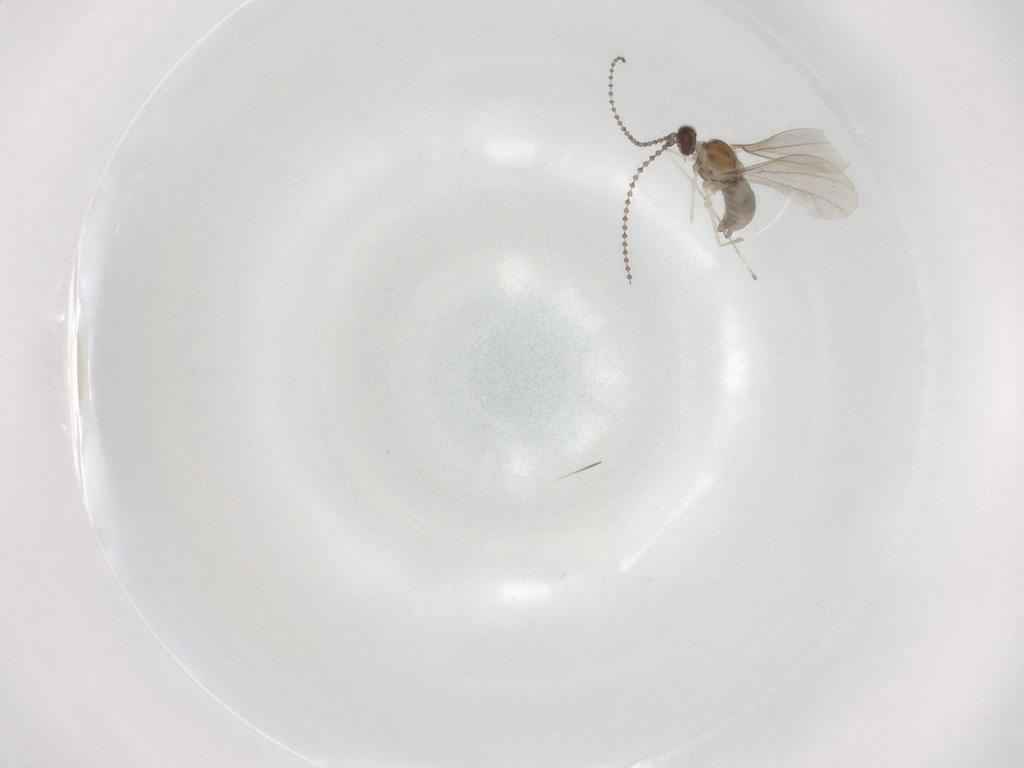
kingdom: Animalia
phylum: Arthropoda
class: Insecta
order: Diptera
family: Cecidomyiidae
